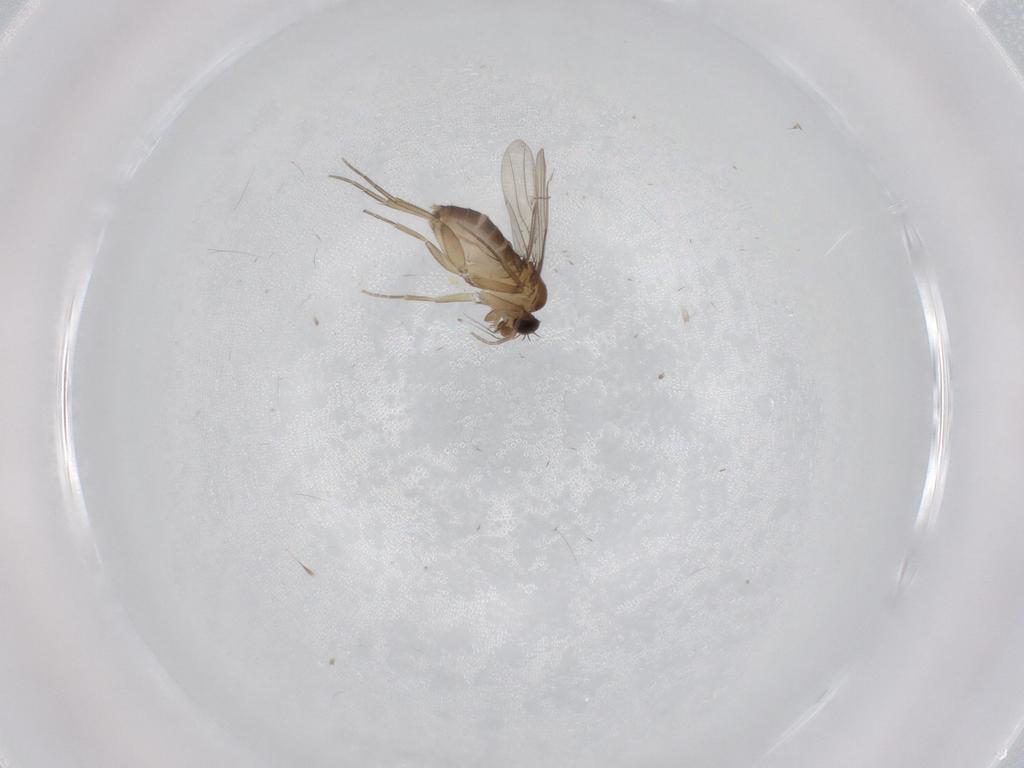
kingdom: Animalia
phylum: Arthropoda
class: Insecta
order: Diptera
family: Phoridae
